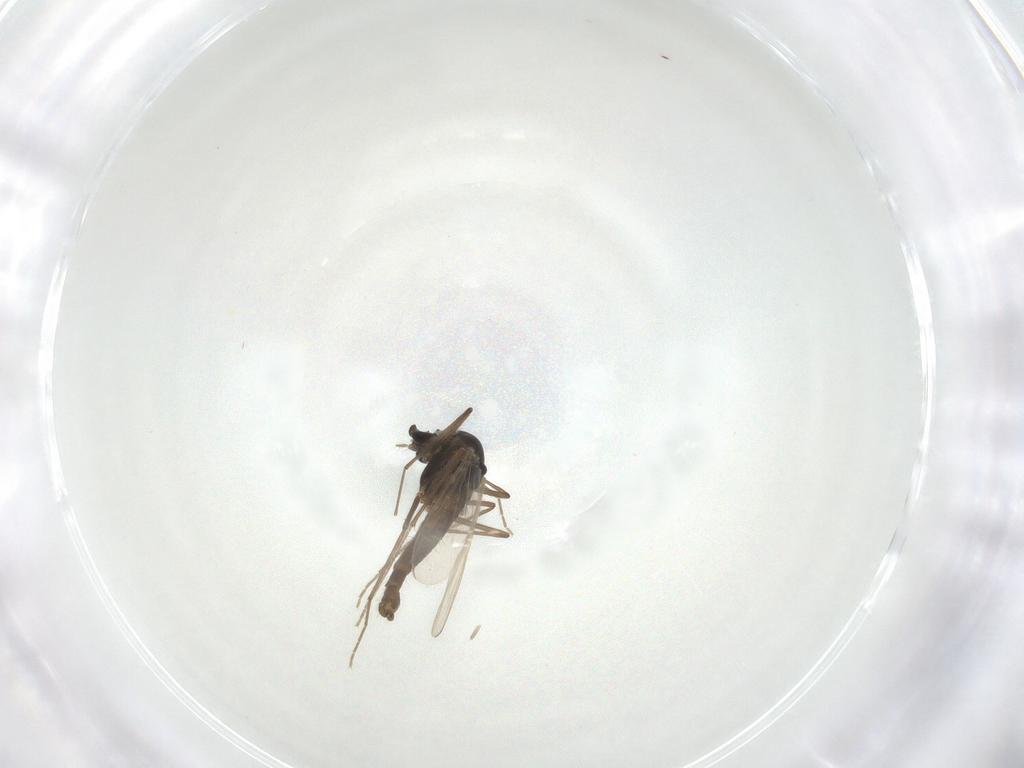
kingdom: Animalia
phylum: Arthropoda
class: Insecta
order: Diptera
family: Chironomidae
